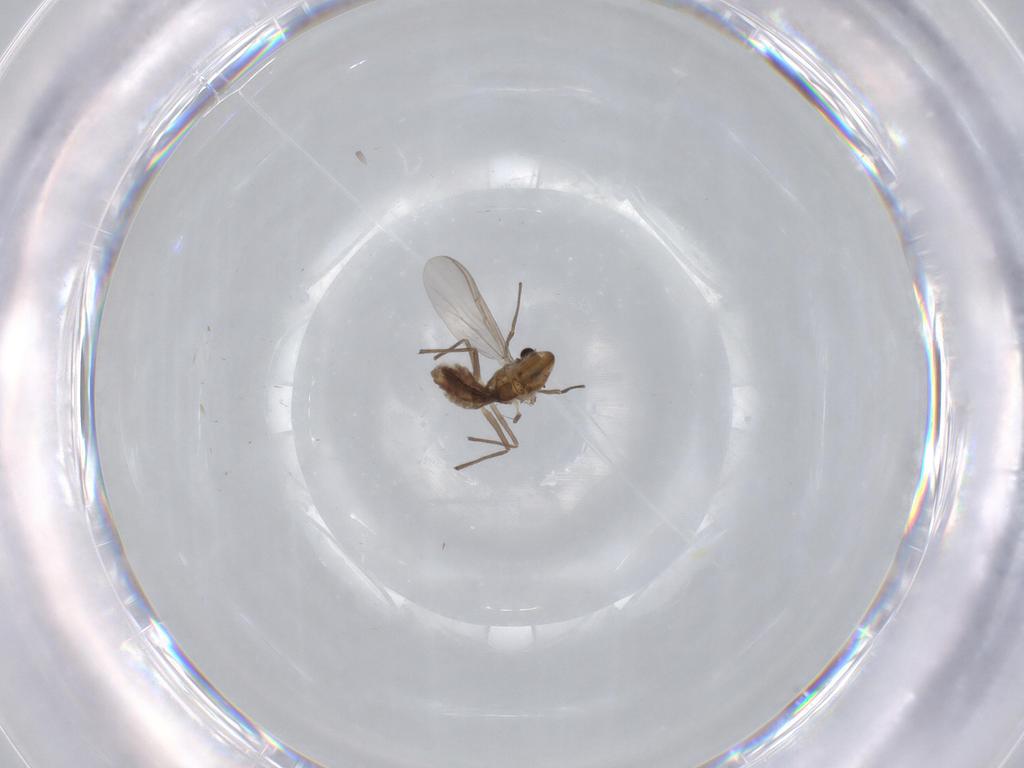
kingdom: Animalia
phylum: Arthropoda
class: Insecta
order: Diptera
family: Chironomidae
